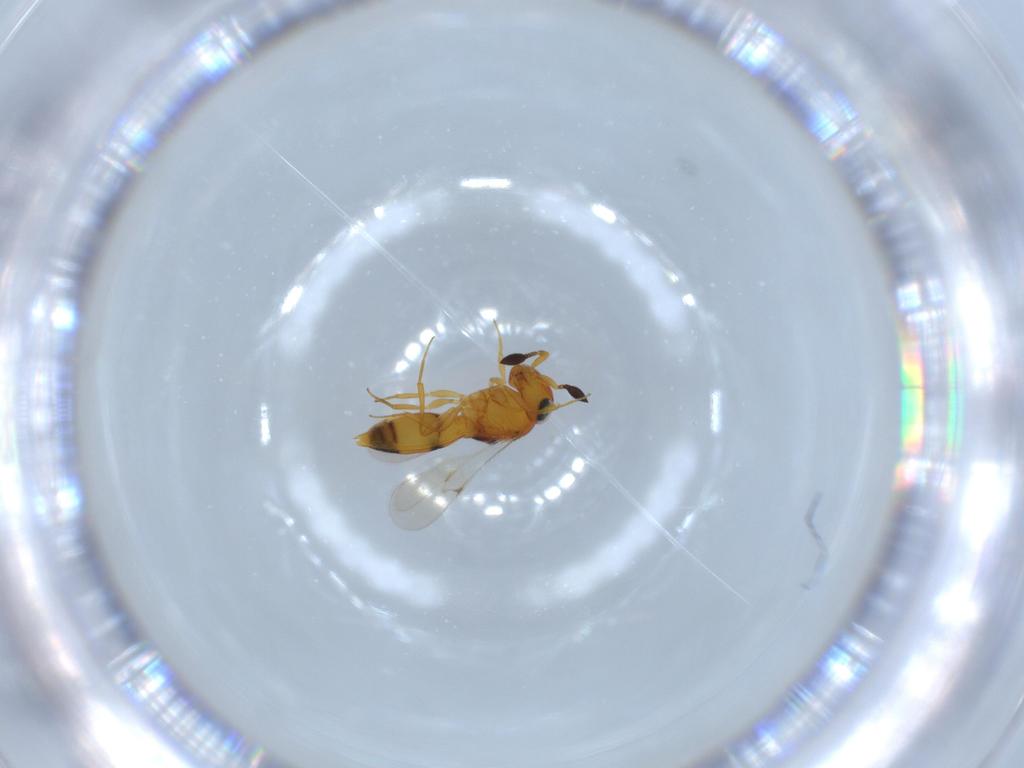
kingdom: Animalia
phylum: Arthropoda
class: Insecta
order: Hymenoptera
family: Scelionidae
